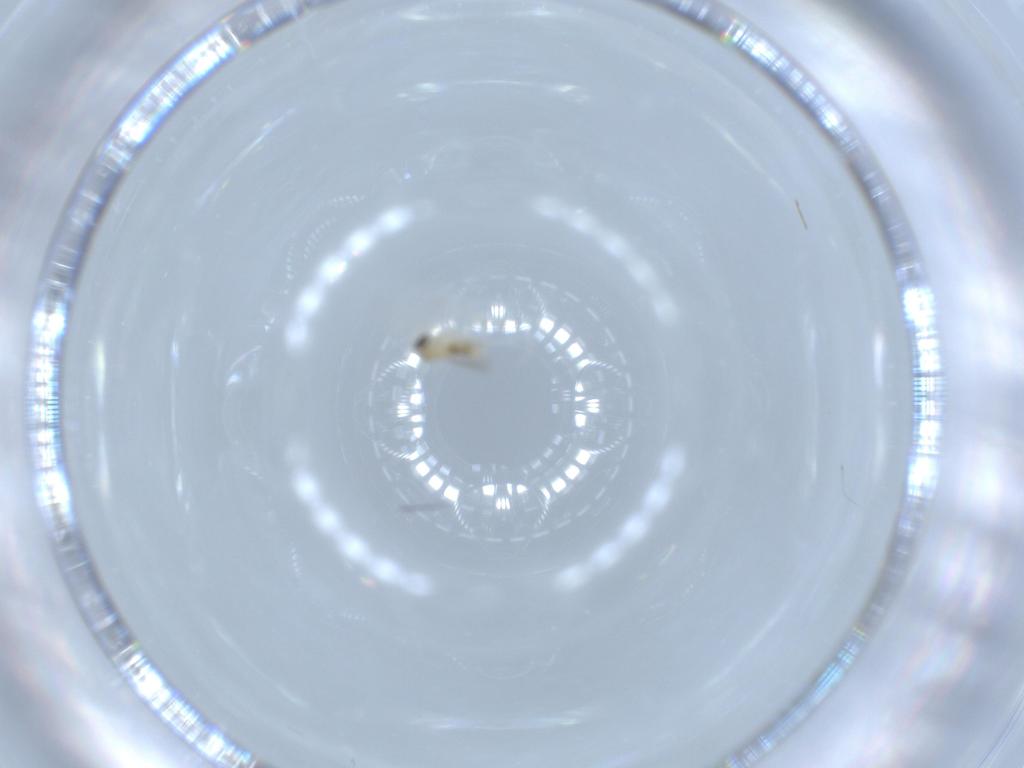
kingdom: Animalia
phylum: Arthropoda
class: Insecta
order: Diptera
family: Cecidomyiidae
